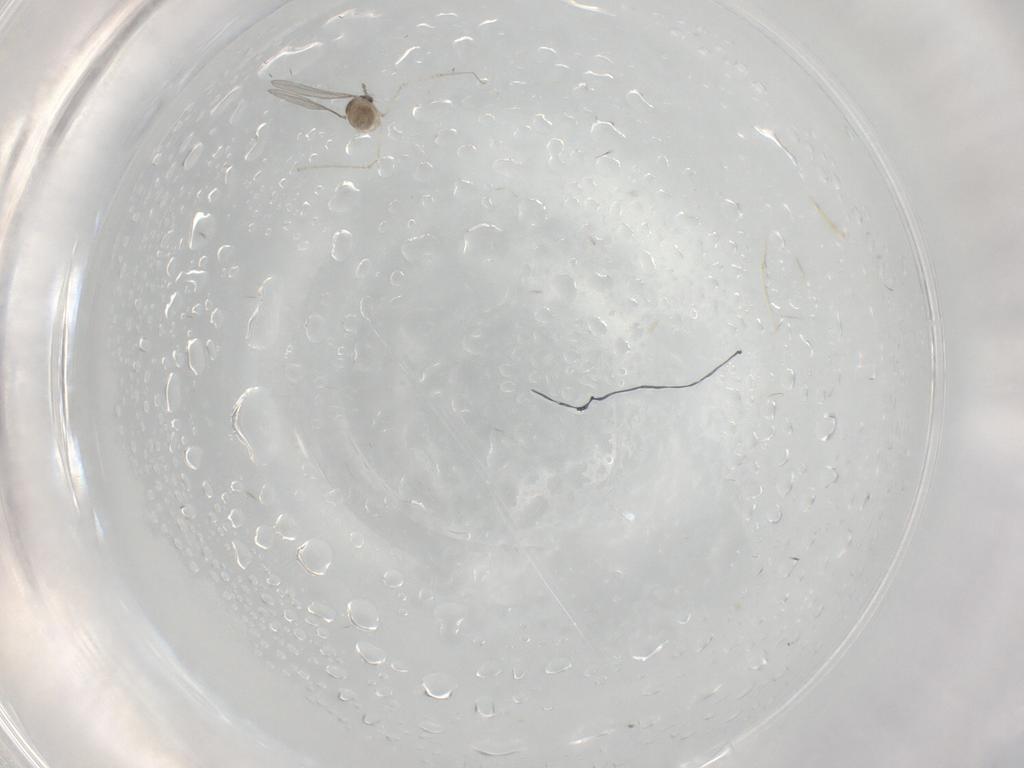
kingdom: Animalia
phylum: Arthropoda
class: Insecta
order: Diptera
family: Cecidomyiidae
